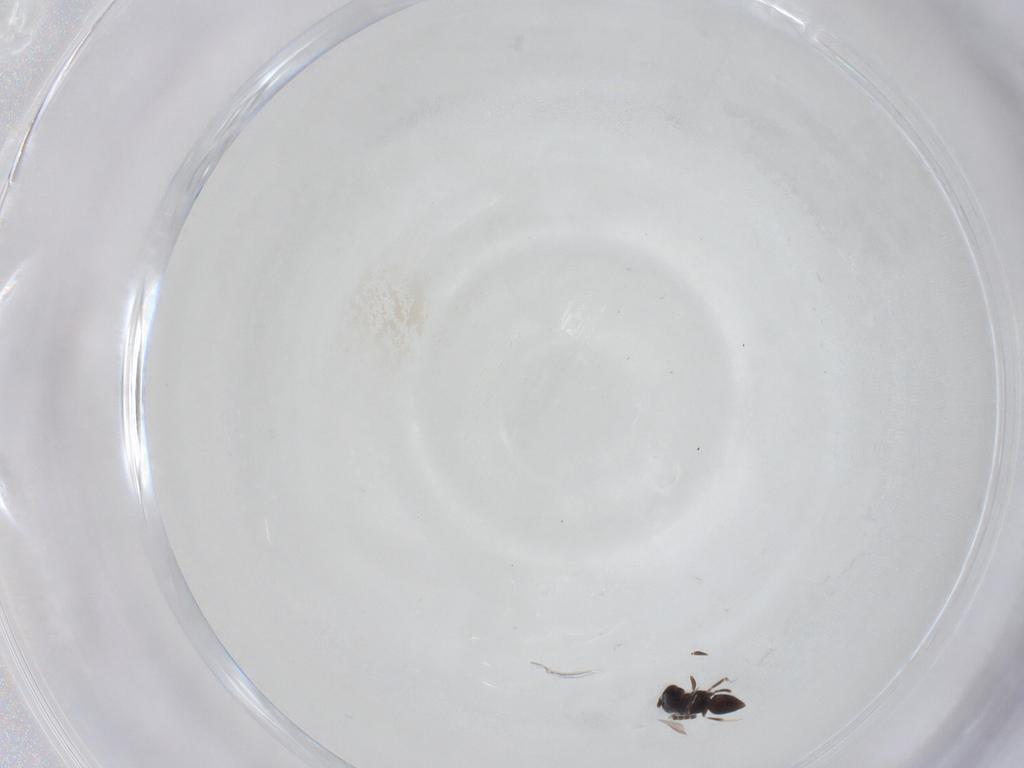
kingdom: Animalia
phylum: Arthropoda
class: Insecta
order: Hymenoptera
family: Ceraphronidae
